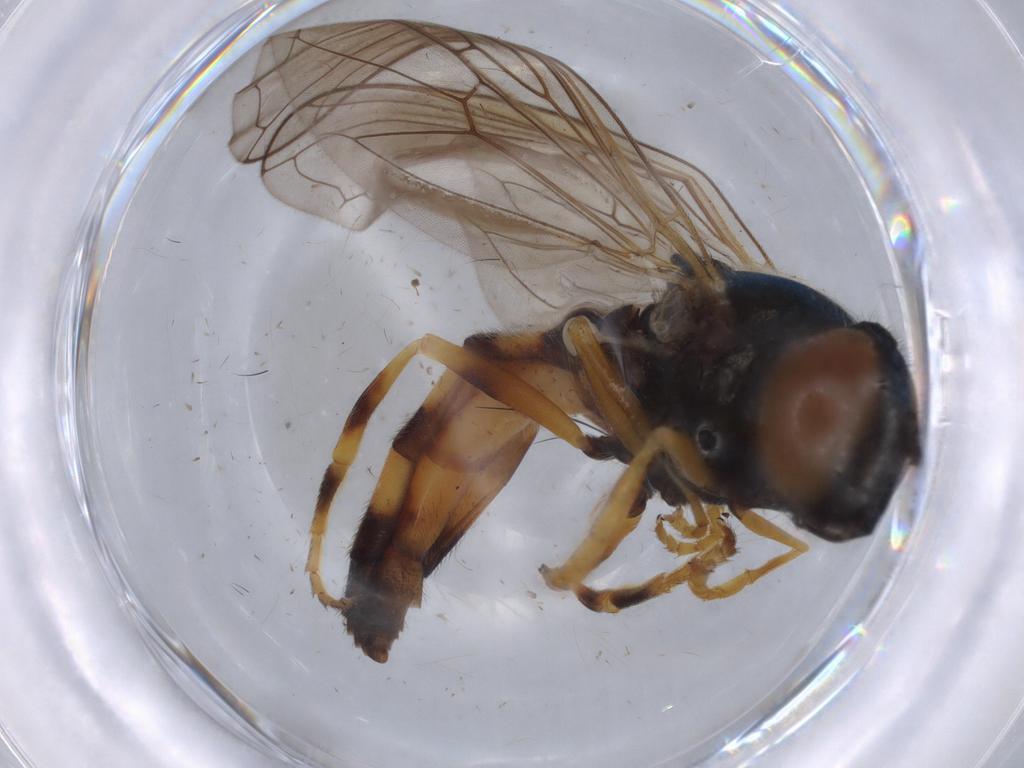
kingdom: Animalia
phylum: Arthropoda
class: Insecta
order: Diptera
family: Syrphidae
